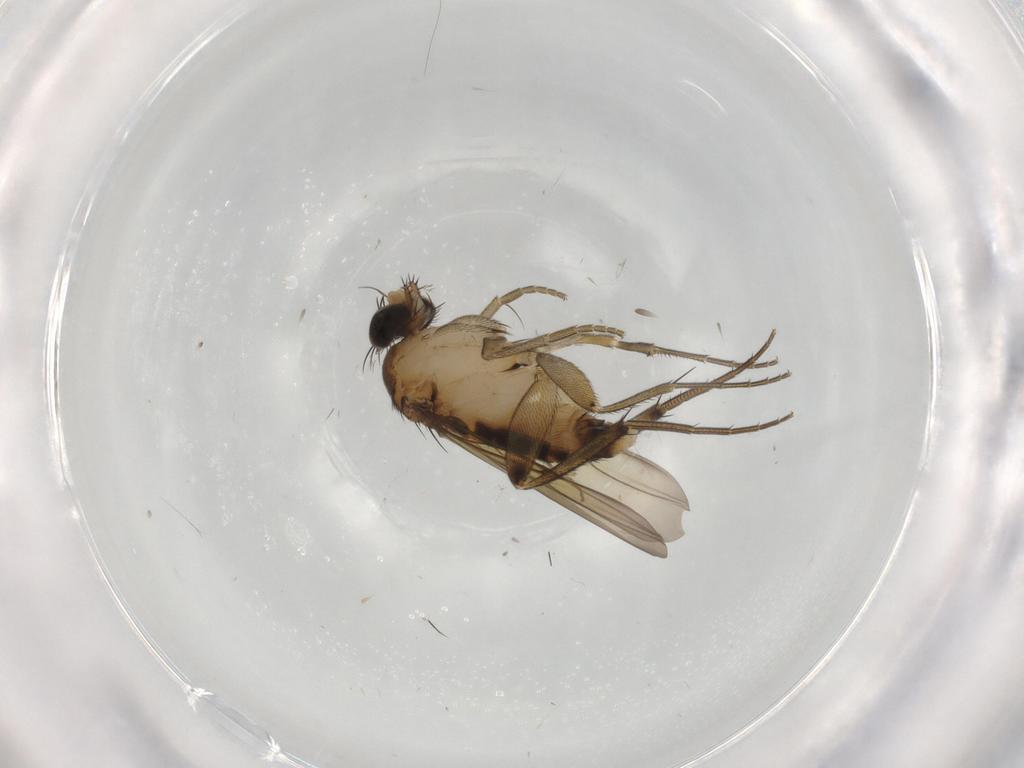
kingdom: Animalia
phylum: Arthropoda
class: Insecta
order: Diptera
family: Phoridae
